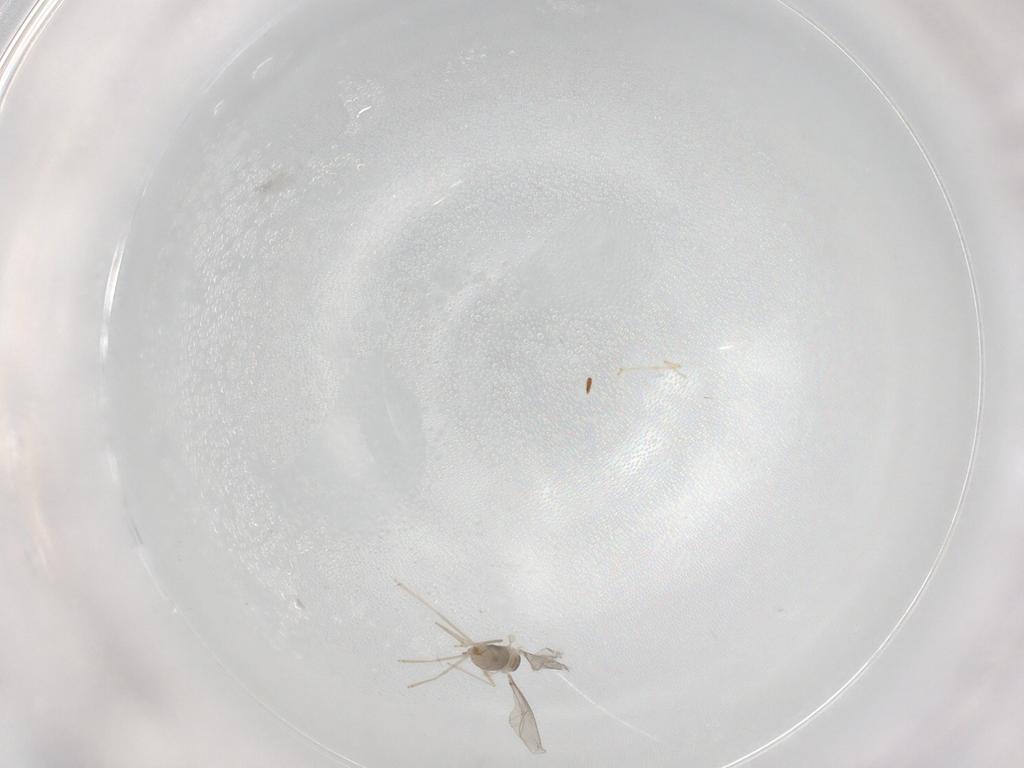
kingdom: Animalia
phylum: Arthropoda
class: Insecta
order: Diptera
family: Cecidomyiidae
